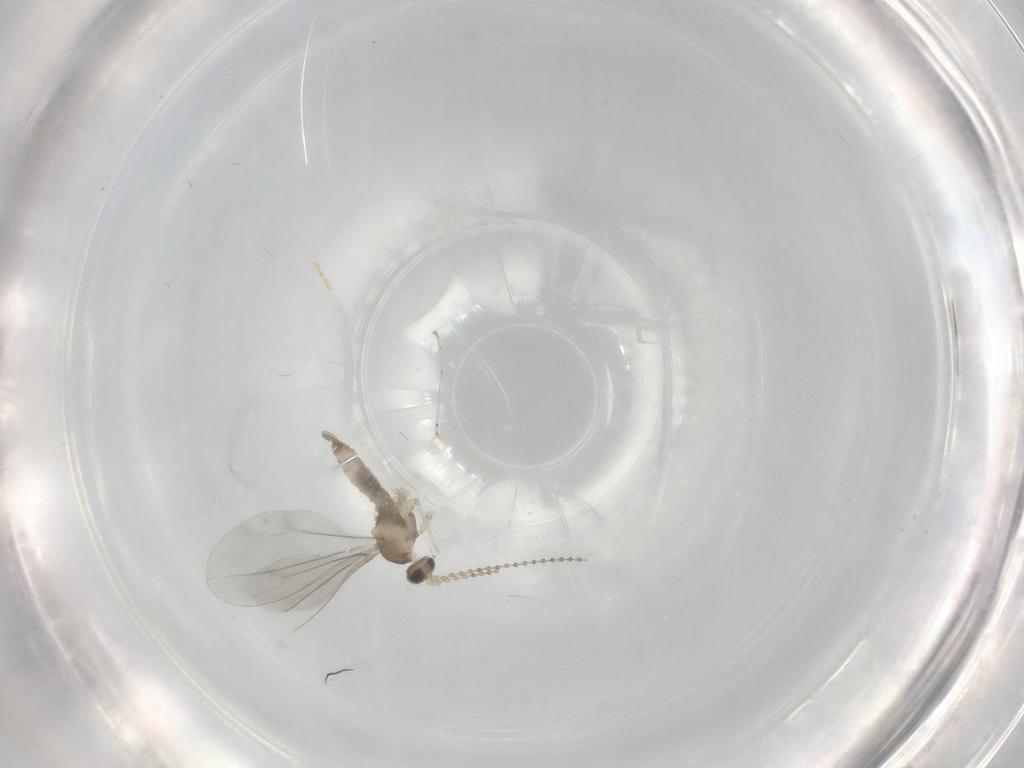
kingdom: Animalia
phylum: Arthropoda
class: Insecta
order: Diptera
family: Cecidomyiidae
